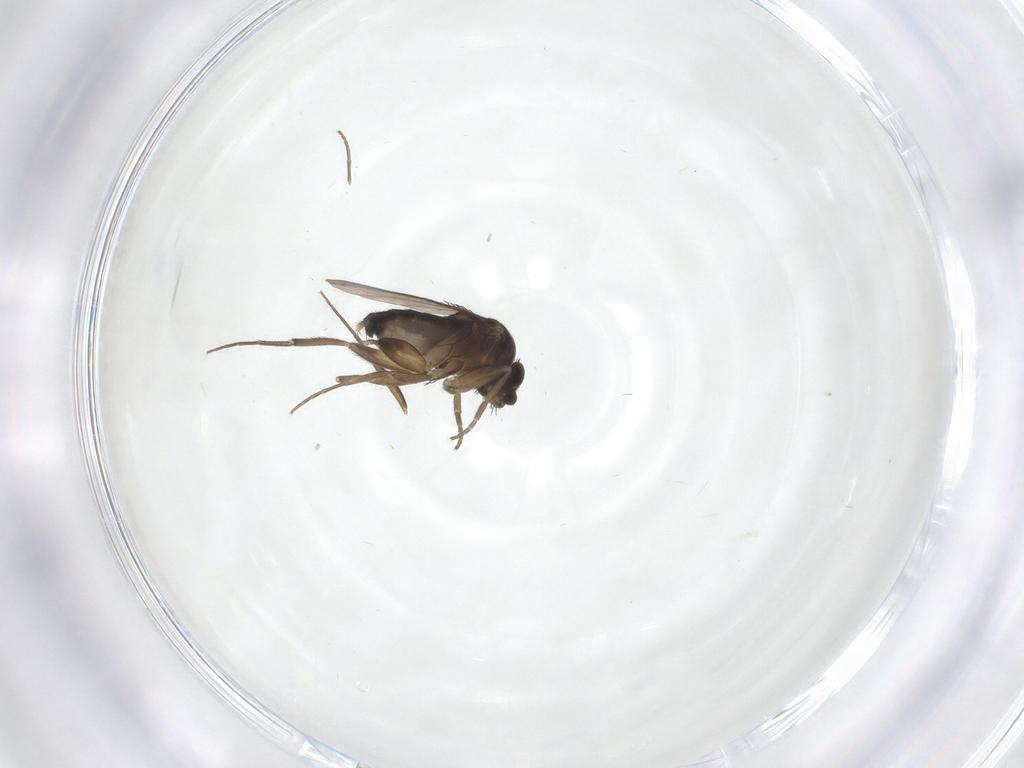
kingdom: Animalia
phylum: Arthropoda
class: Insecta
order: Diptera
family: Phoridae
